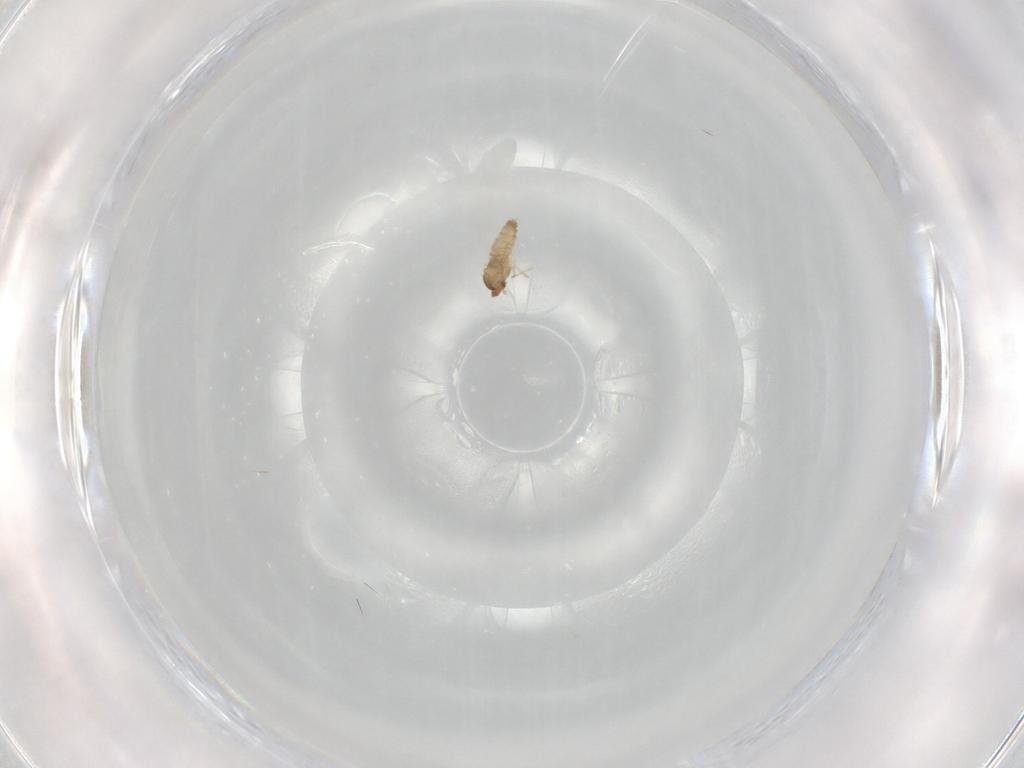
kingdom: Animalia
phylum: Arthropoda
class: Insecta
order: Diptera
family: Cecidomyiidae
